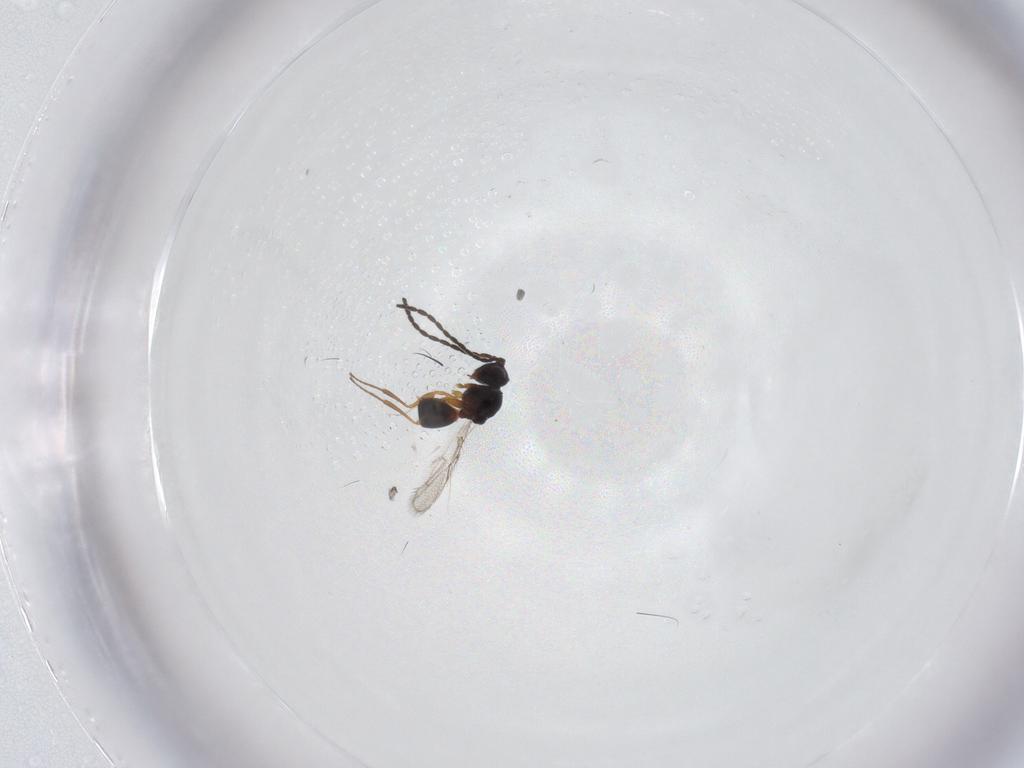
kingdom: Animalia
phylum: Arthropoda
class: Insecta
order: Hymenoptera
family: Figitidae
